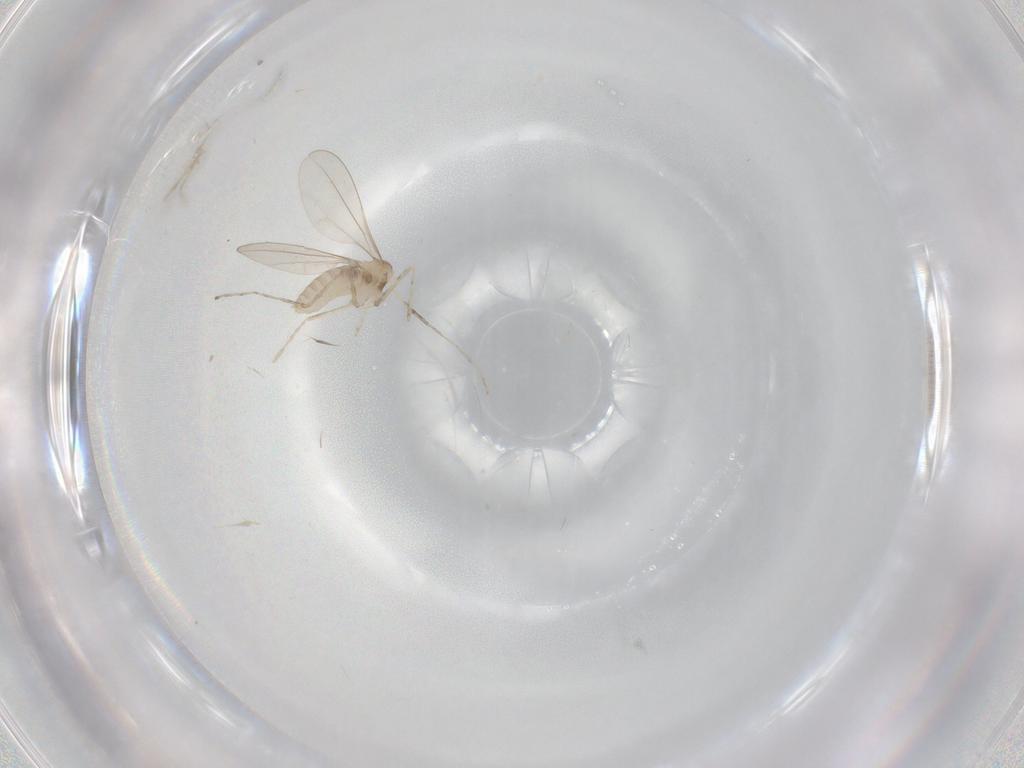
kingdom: Animalia
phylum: Arthropoda
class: Insecta
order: Diptera
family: Cecidomyiidae
